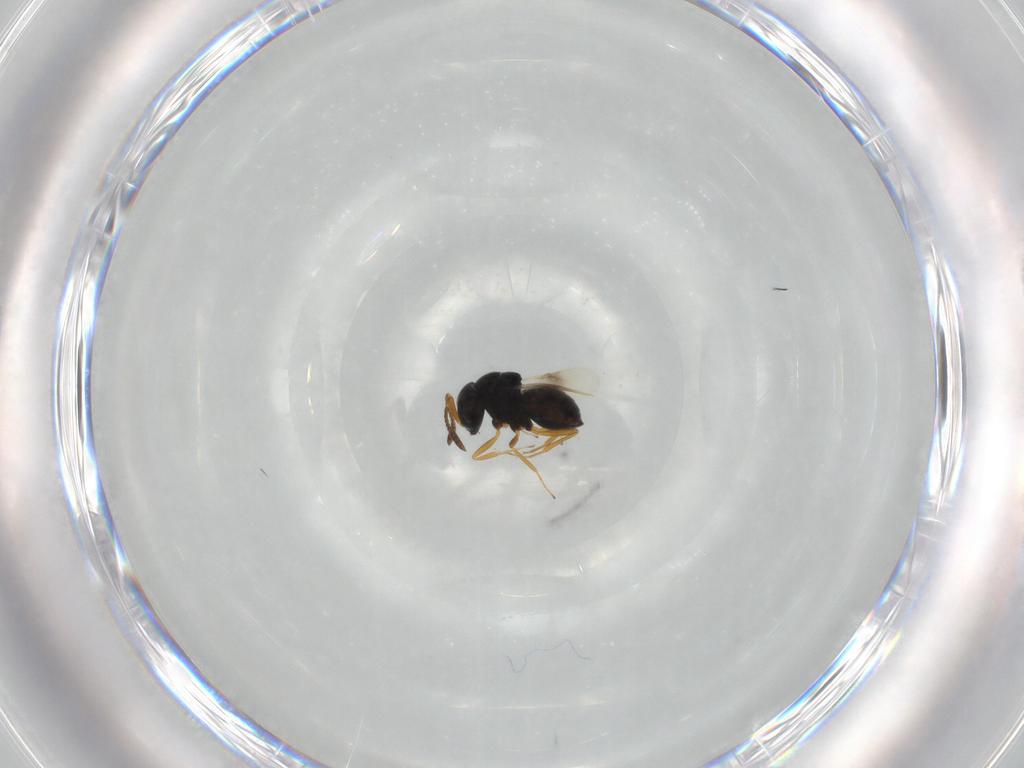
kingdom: Animalia
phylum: Arthropoda
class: Insecta
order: Hymenoptera
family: Scelionidae
